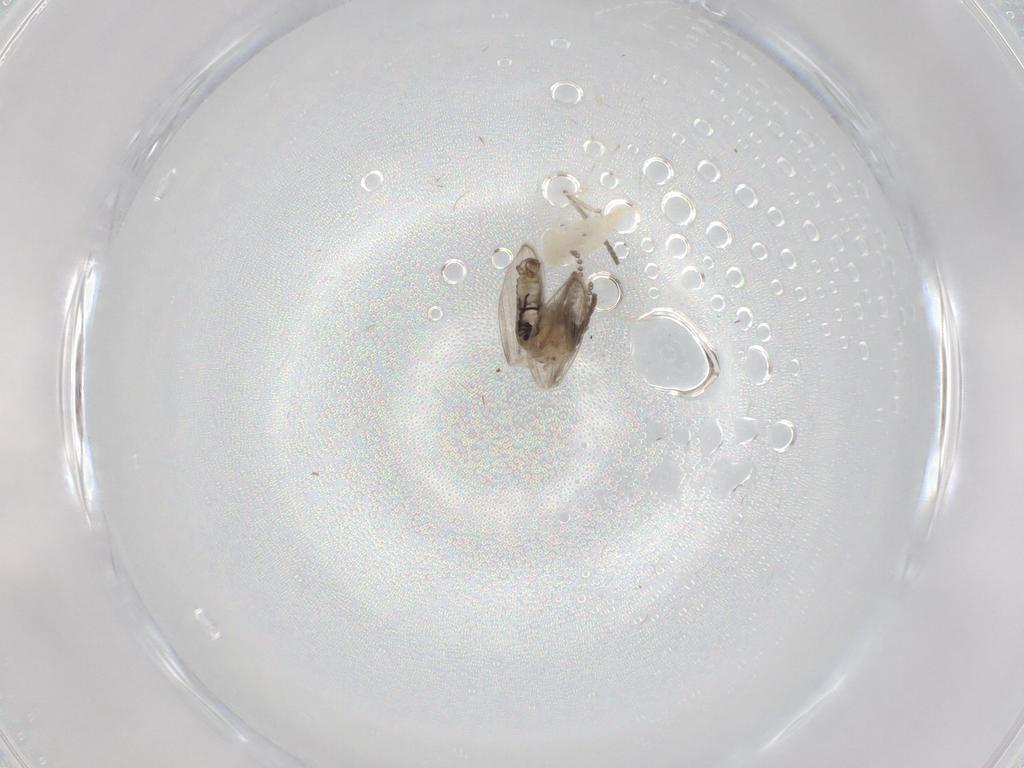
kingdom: Animalia
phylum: Arthropoda
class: Insecta
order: Diptera
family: Psychodidae
